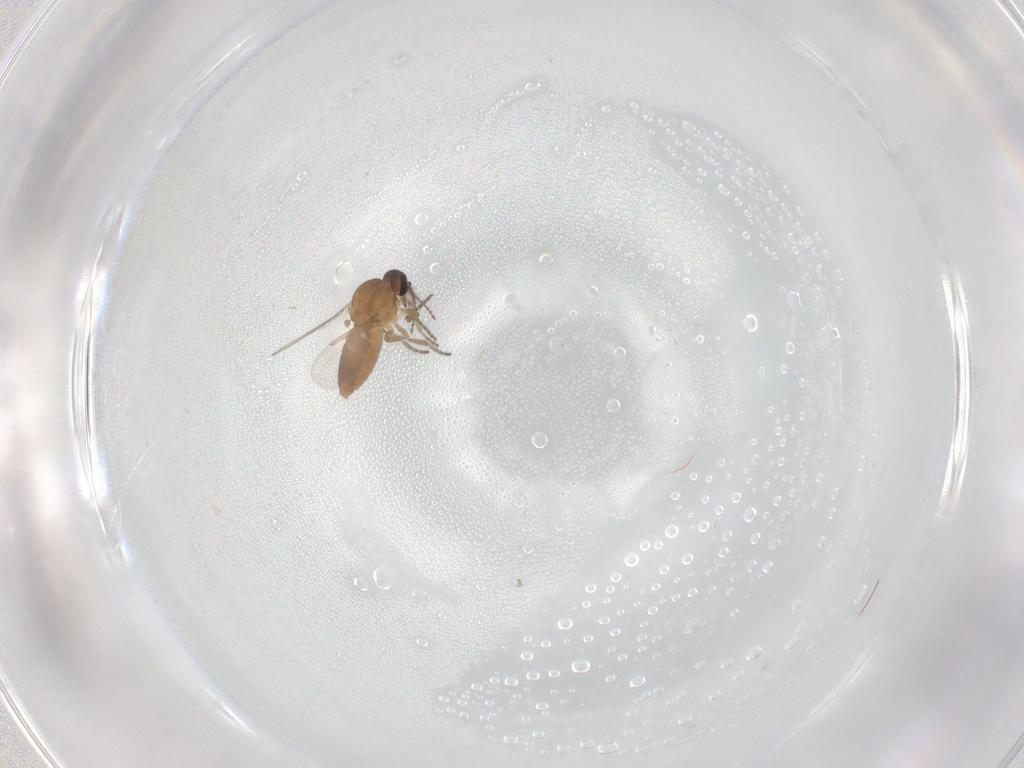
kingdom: Animalia
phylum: Arthropoda
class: Insecta
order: Diptera
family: Ceratopogonidae
